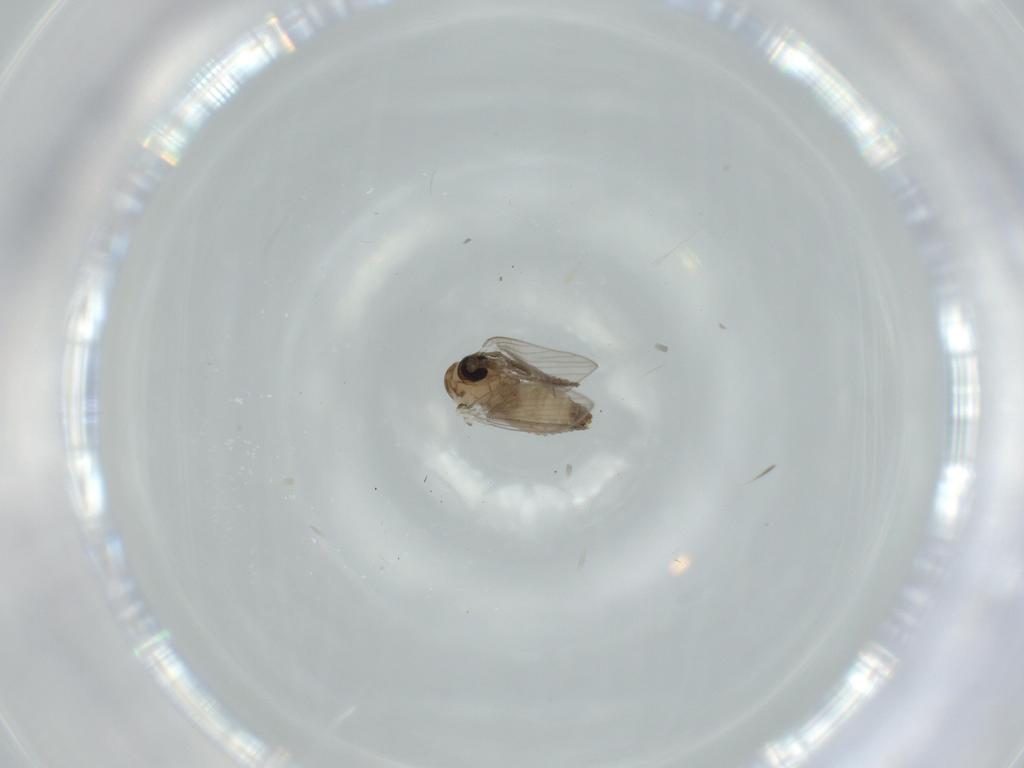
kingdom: Animalia
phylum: Arthropoda
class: Insecta
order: Diptera
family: Psychodidae
